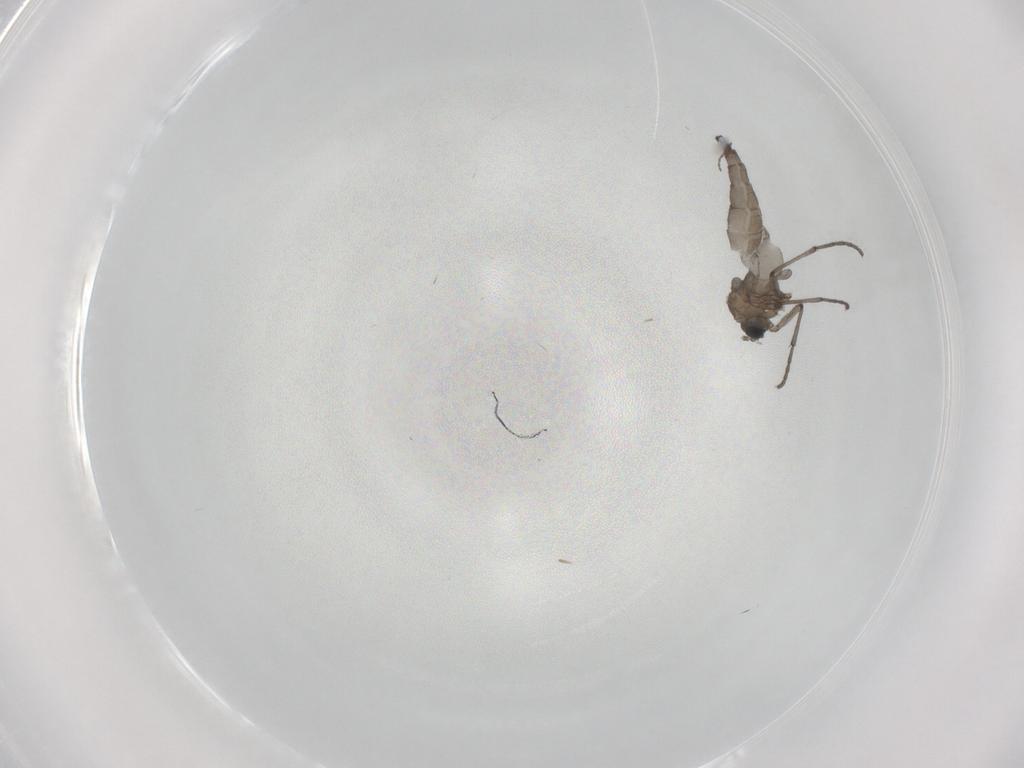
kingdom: Animalia
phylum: Arthropoda
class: Insecta
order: Diptera
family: Sciaridae
